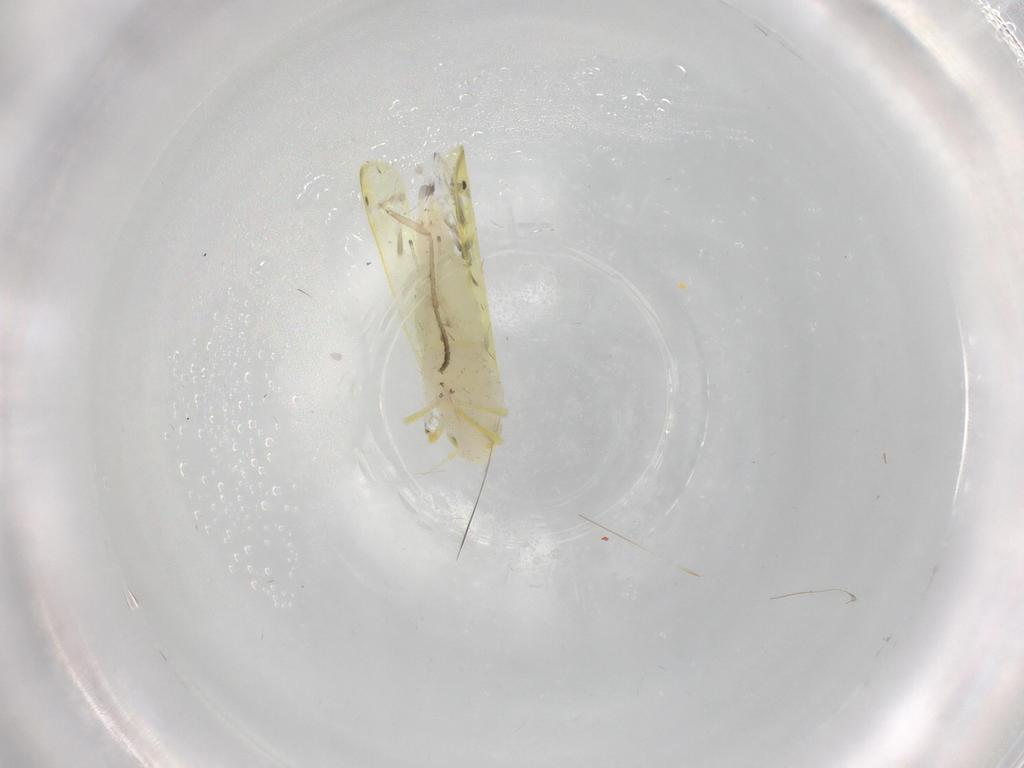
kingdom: Animalia
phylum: Arthropoda
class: Insecta
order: Hemiptera
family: Cicadellidae
